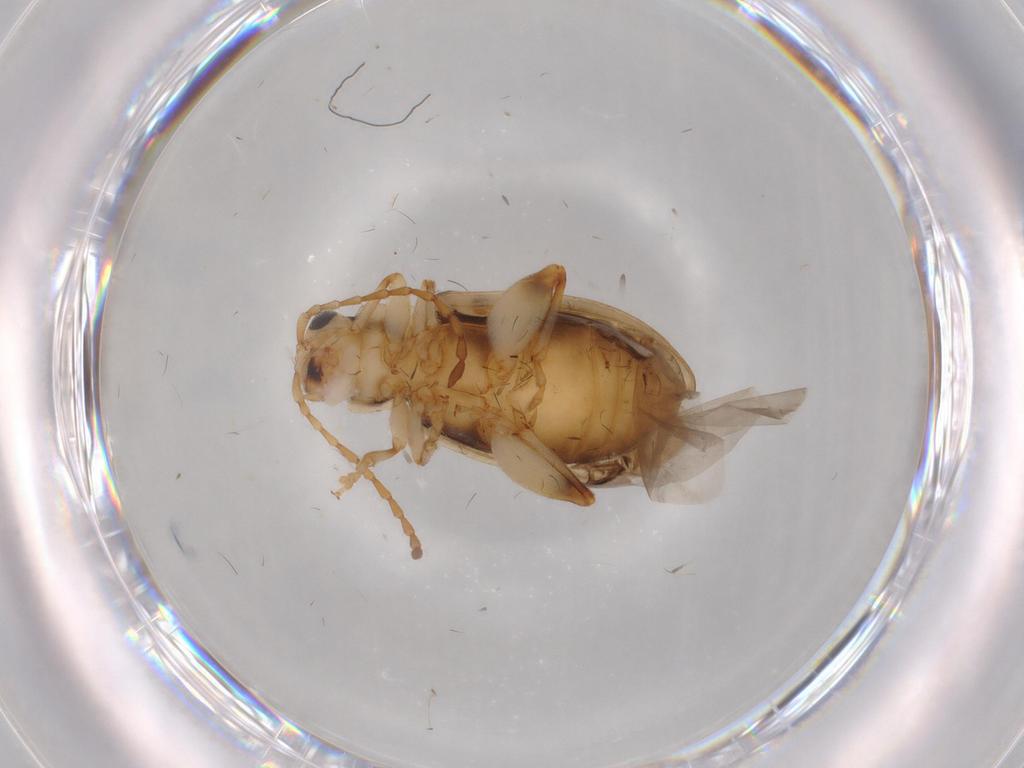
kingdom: Animalia
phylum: Arthropoda
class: Insecta
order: Coleoptera
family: Chrysomelidae
